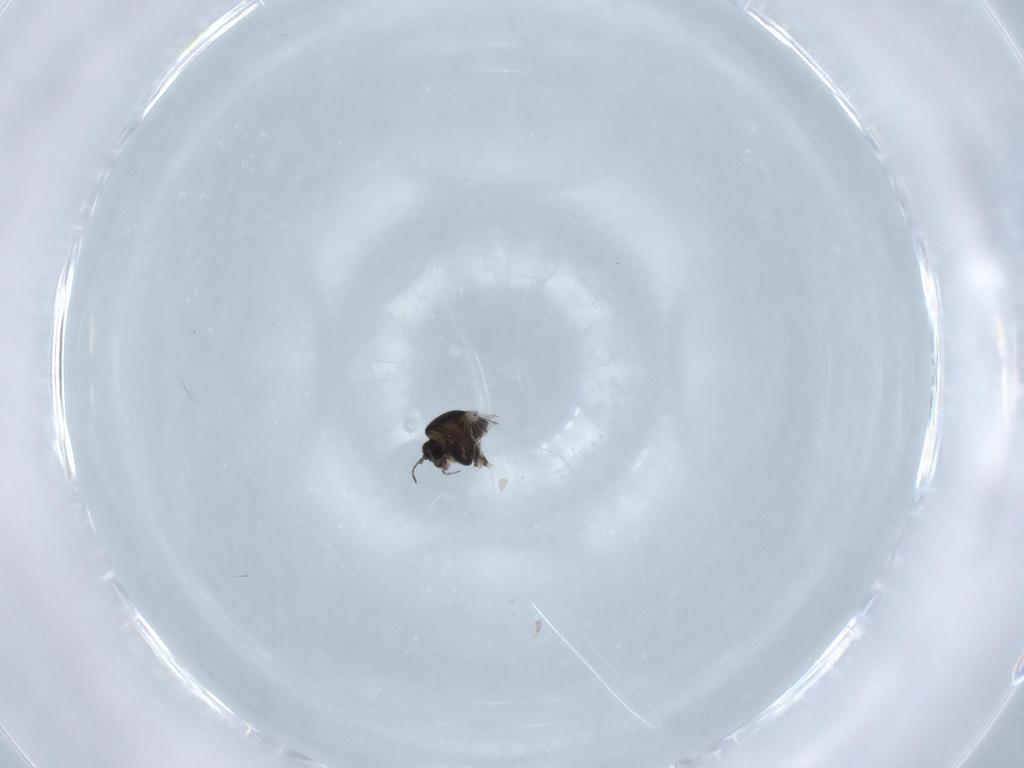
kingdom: Animalia
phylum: Arthropoda
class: Insecta
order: Diptera
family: Chironomidae
